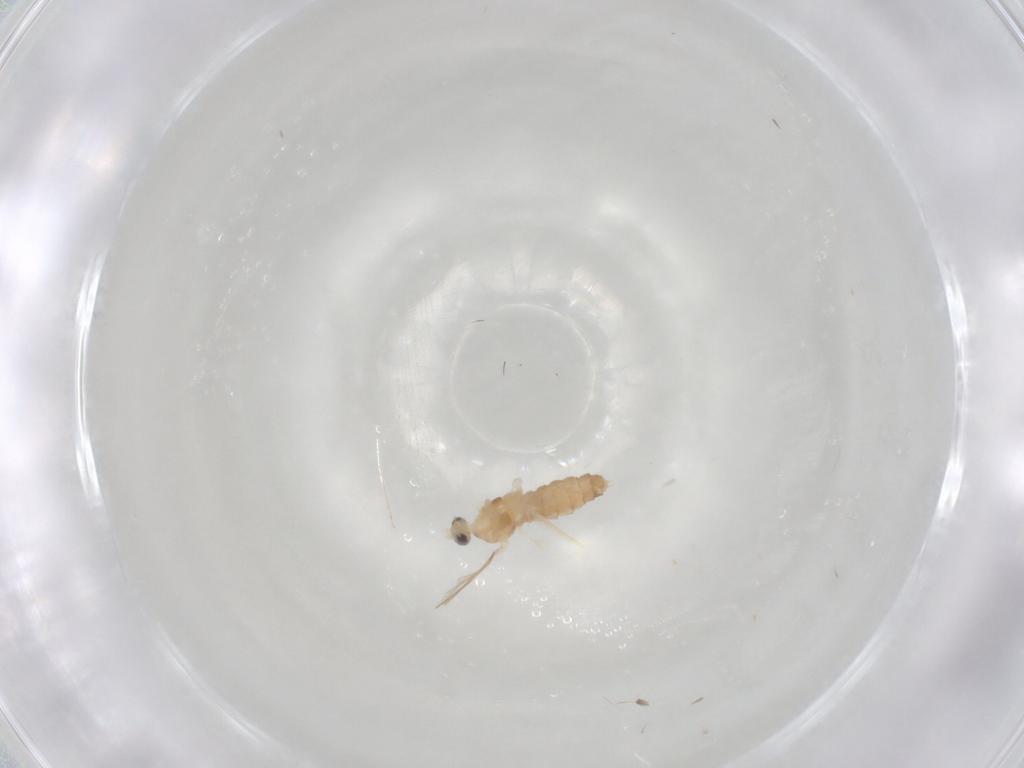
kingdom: Animalia
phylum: Arthropoda
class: Insecta
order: Diptera
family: Cecidomyiidae
